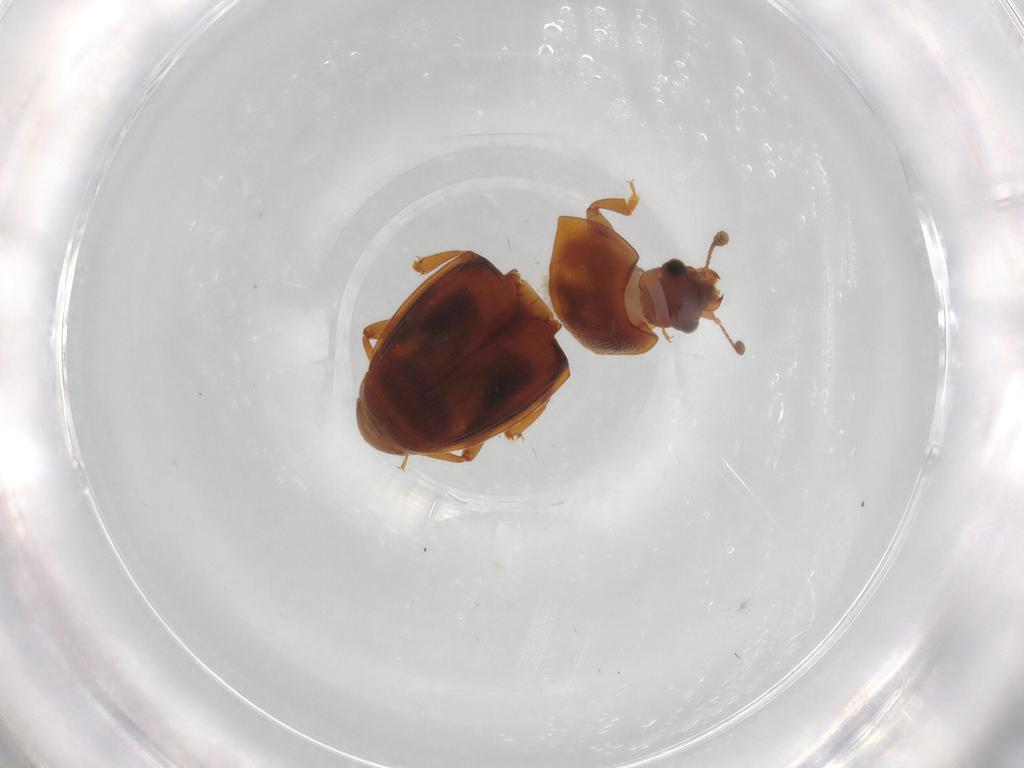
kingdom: Animalia
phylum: Arthropoda
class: Insecta
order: Coleoptera
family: Nitidulidae
